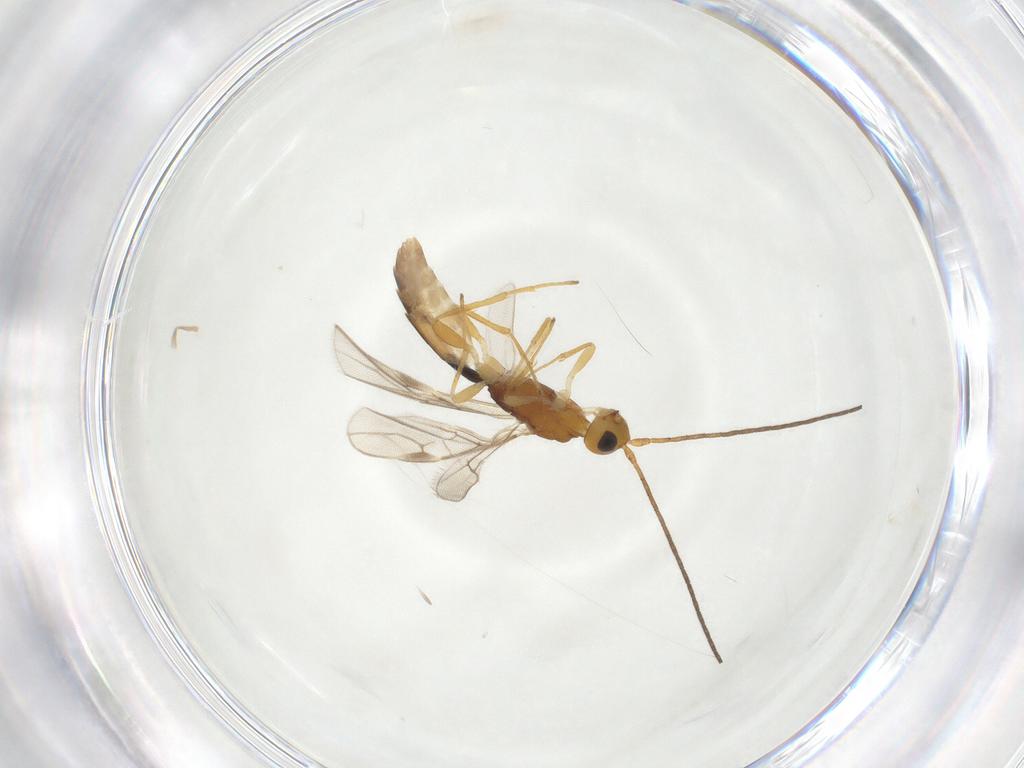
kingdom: Animalia
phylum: Arthropoda
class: Insecta
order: Hymenoptera
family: Braconidae
